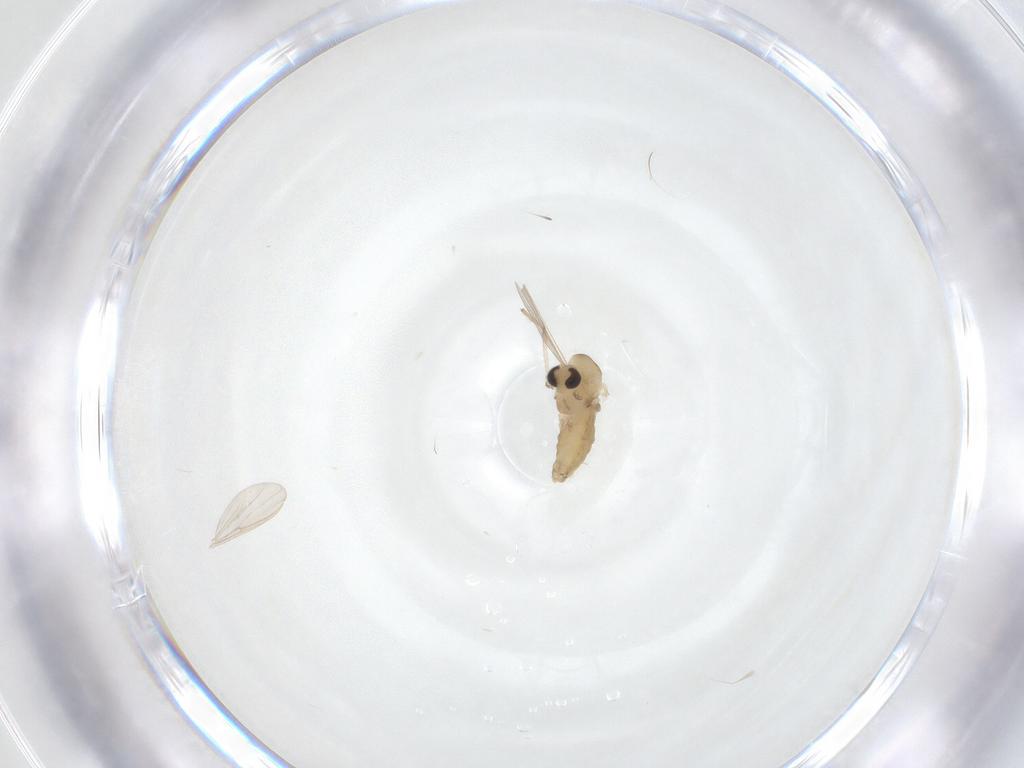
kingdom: Animalia
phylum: Arthropoda
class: Insecta
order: Diptera
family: Chironomidae
